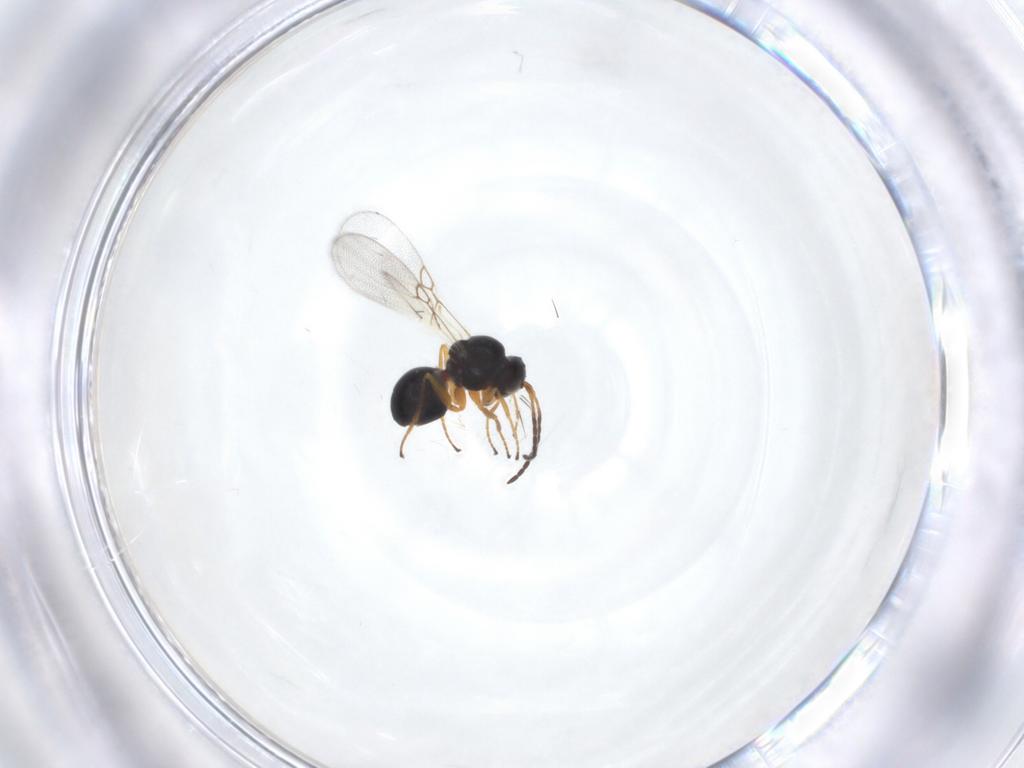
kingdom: Animalia
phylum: Arthropoda
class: Insecta
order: Hymenoptera
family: Figitidae
